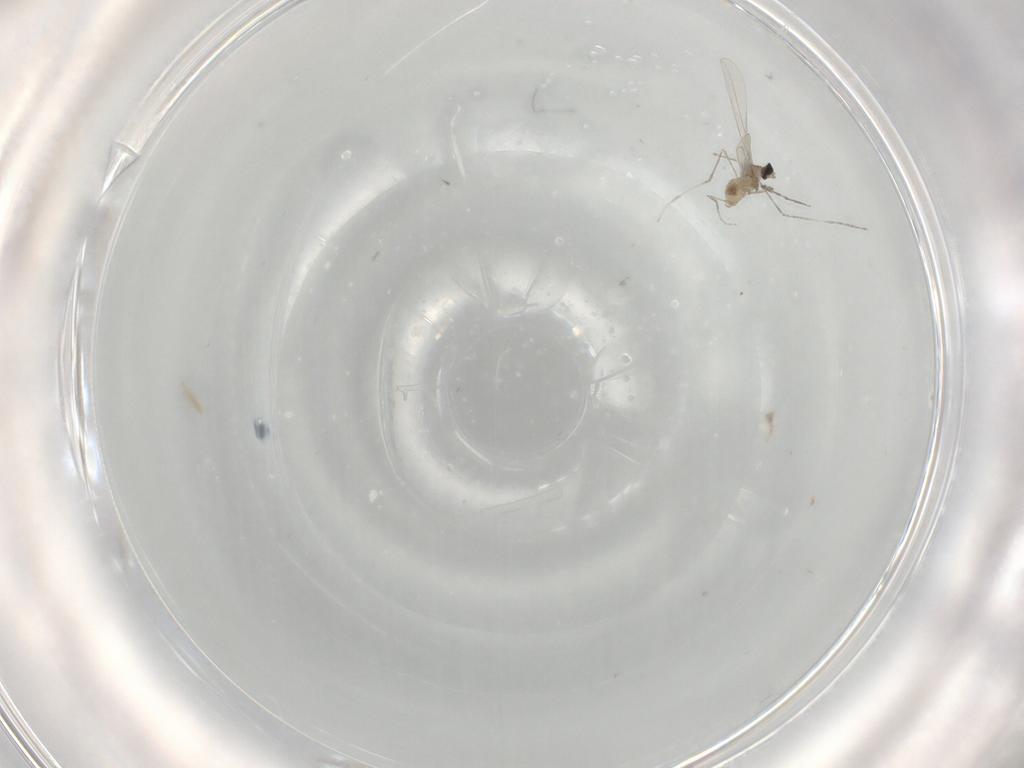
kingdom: Animalia
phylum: Arthropoda
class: Insecta
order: Diptera
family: Cecidomyiidae
